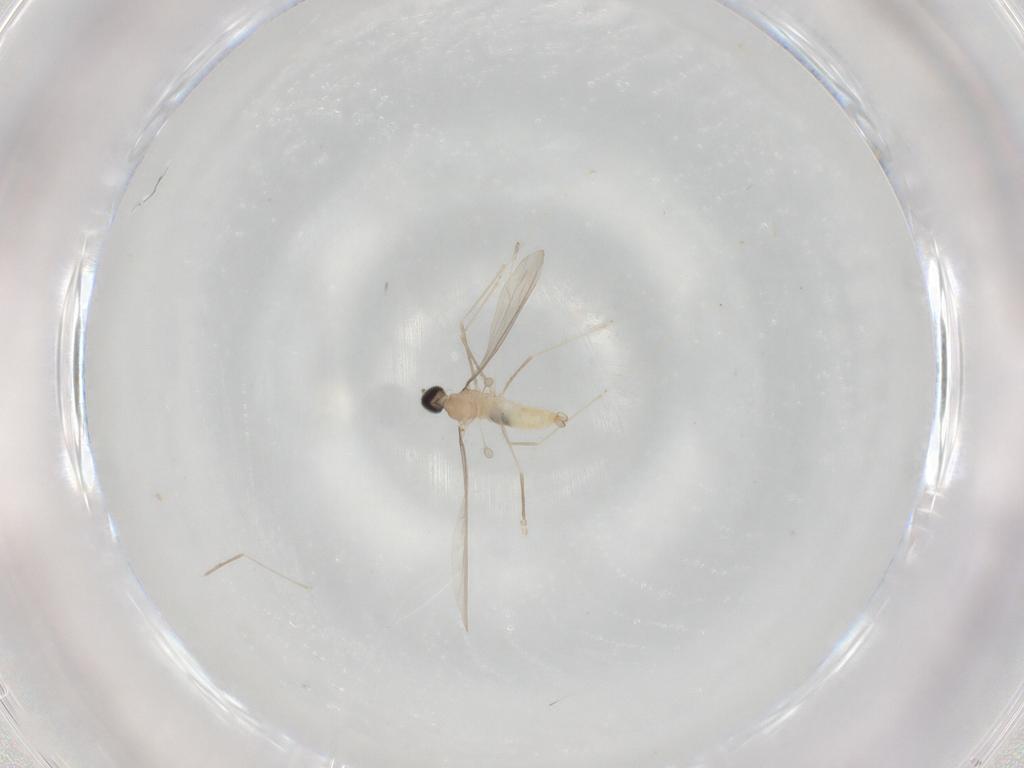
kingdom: Animalia
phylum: Arthropoda
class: Insecta
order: Diptera
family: Cecidomyiidae
